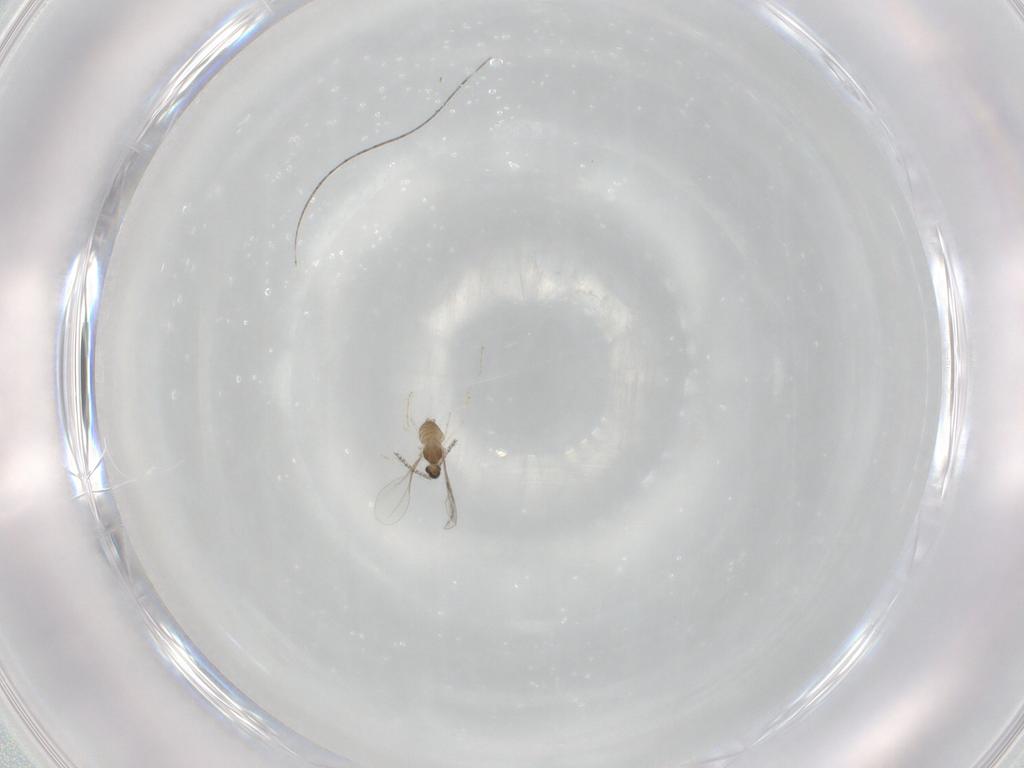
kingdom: Animalia
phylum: Arthropoda
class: Insecta
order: Diptera
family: Cecidomyiidae
